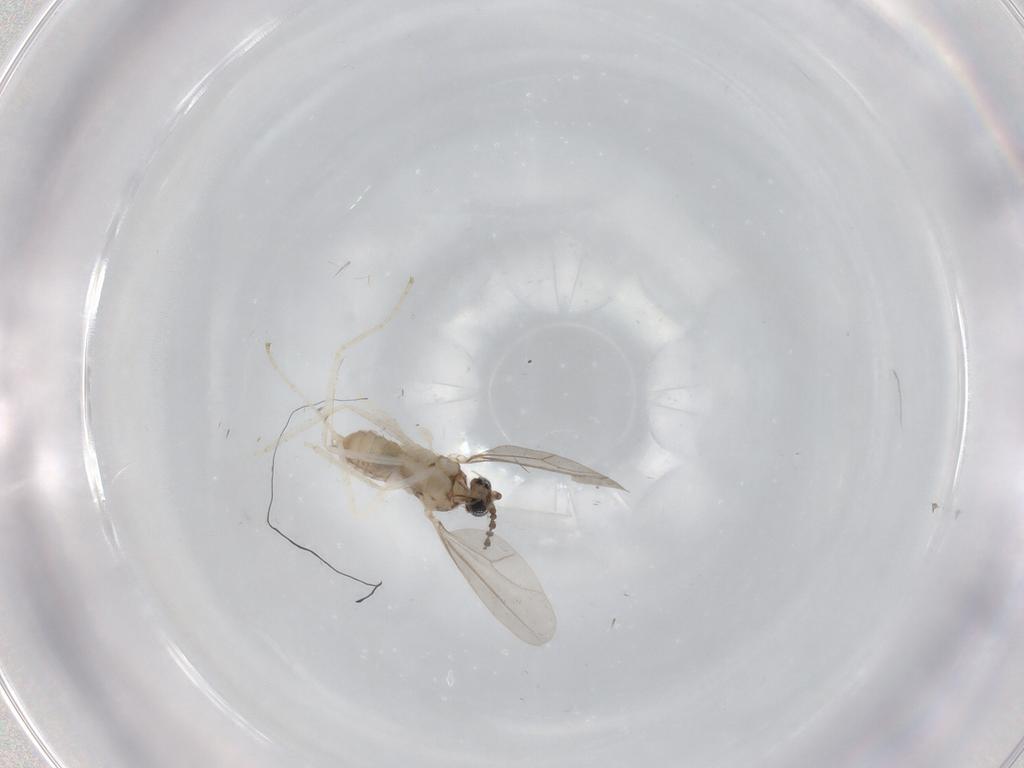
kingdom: Animalia
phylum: Arthropoda
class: Insecta
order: Diptera
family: Cecidomyiidae
